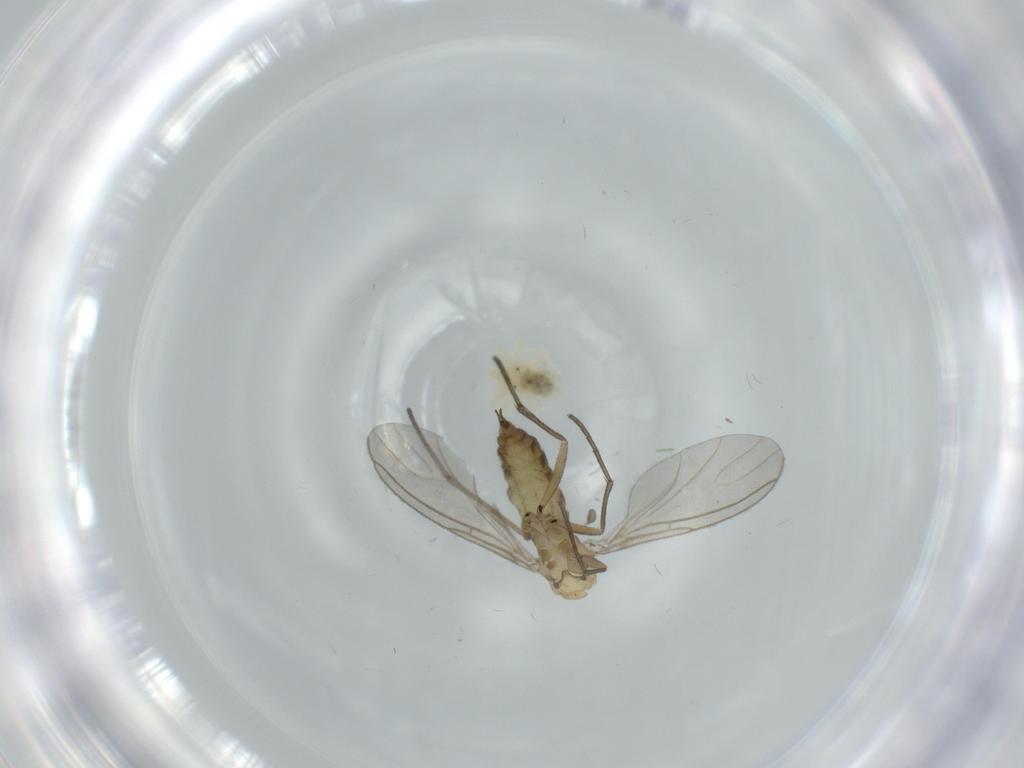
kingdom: Animalia
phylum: Arthropoda
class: Insecta
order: Diptera
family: Sciaridae
